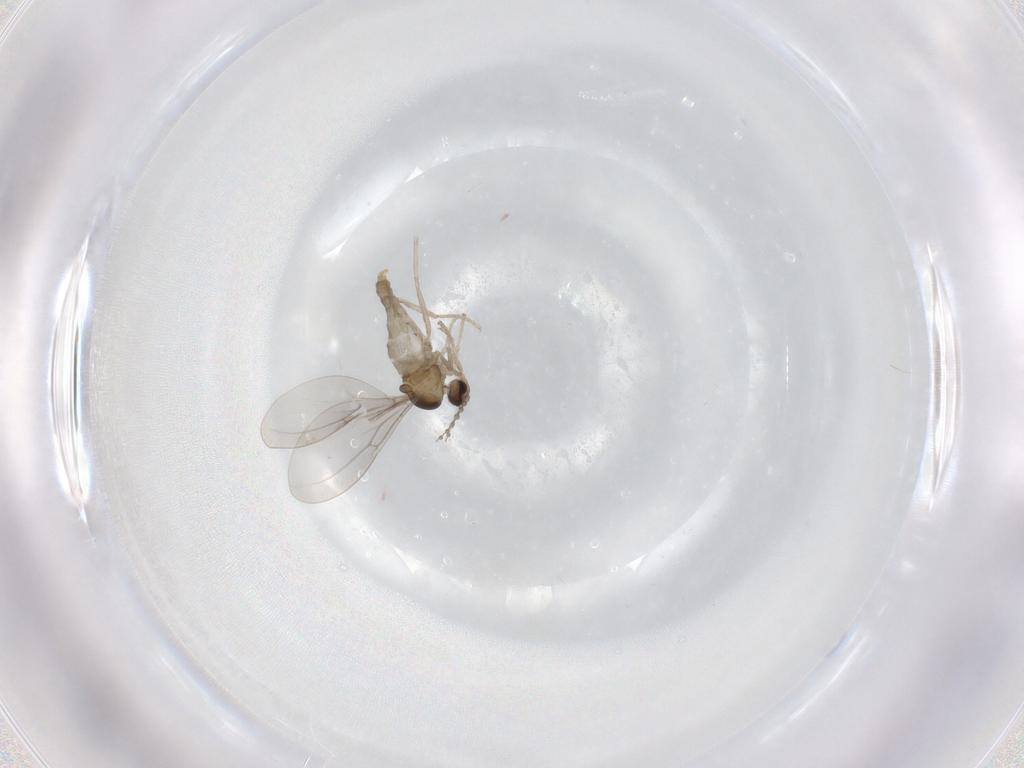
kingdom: Animalia
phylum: Arthropoda
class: Insecta
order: Diptera
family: Cecidomyiidae
